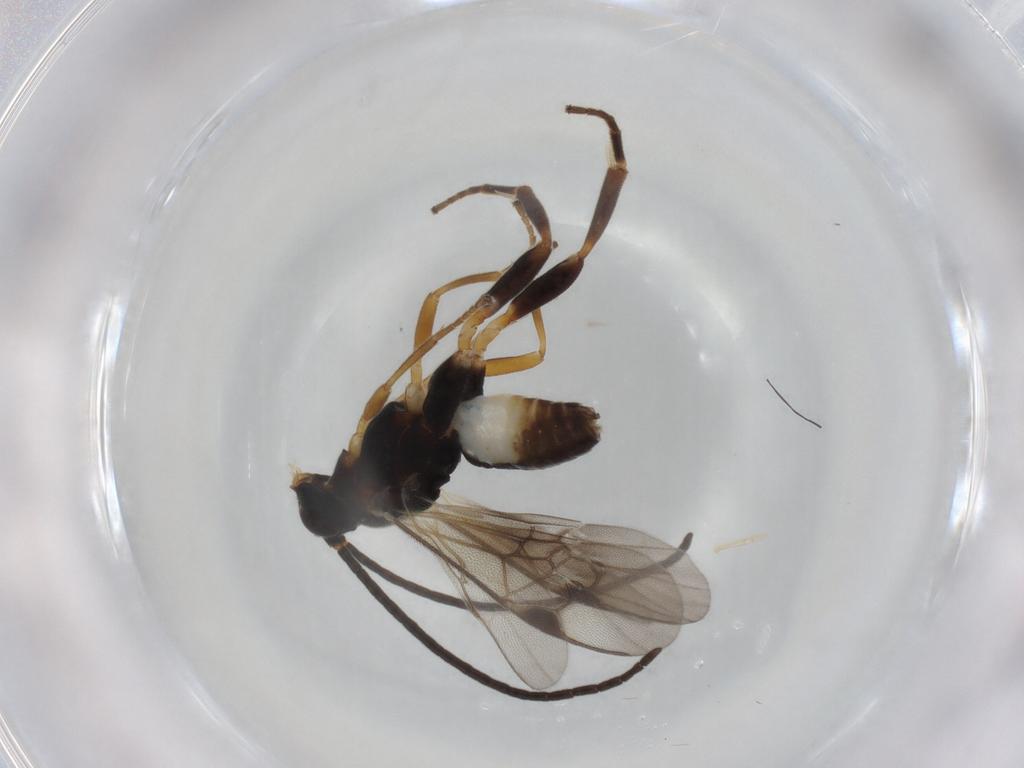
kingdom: Animalia
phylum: Arthropoda
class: Insecta
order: Hymenoptera
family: Braconidae
